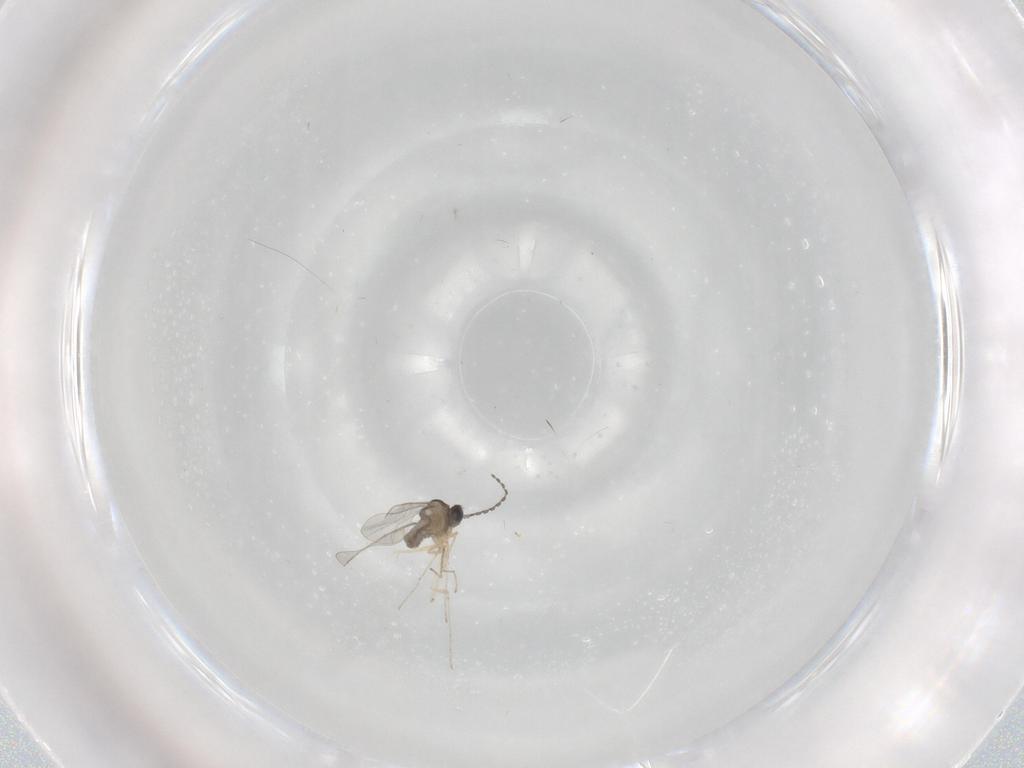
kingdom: Animalia
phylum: Arthropoda
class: Insecta
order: Diptera
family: Cecidomyiidae
